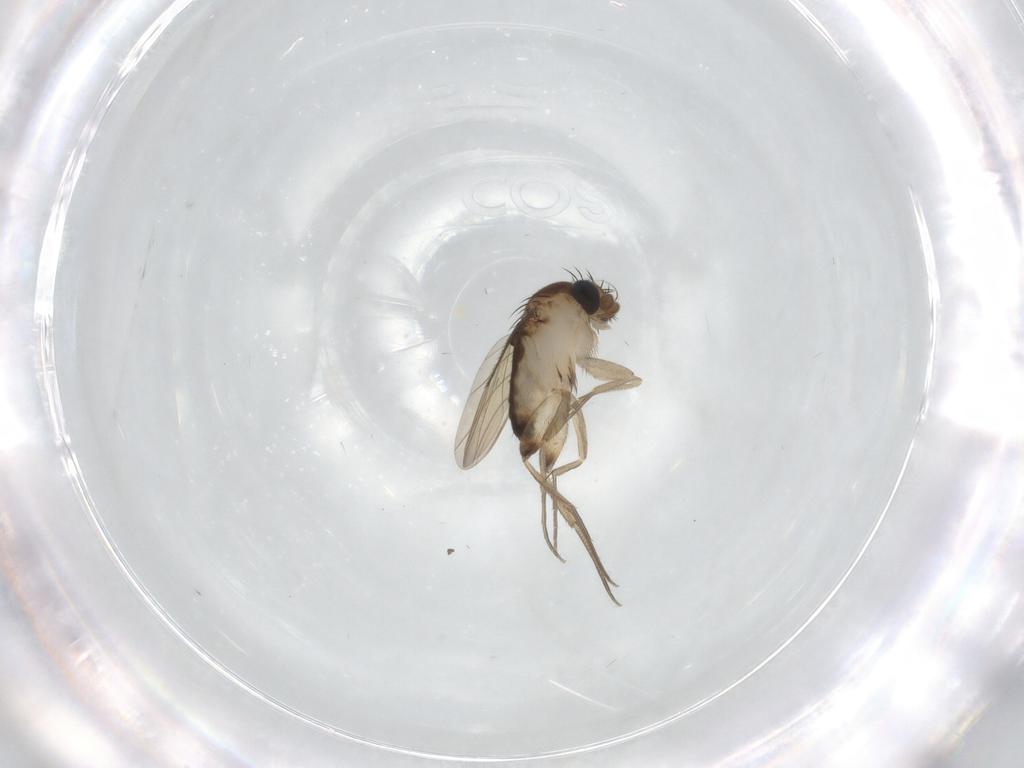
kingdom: Animalia
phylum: Arthropoda
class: Insecta
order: Diptera
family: Phoridae
